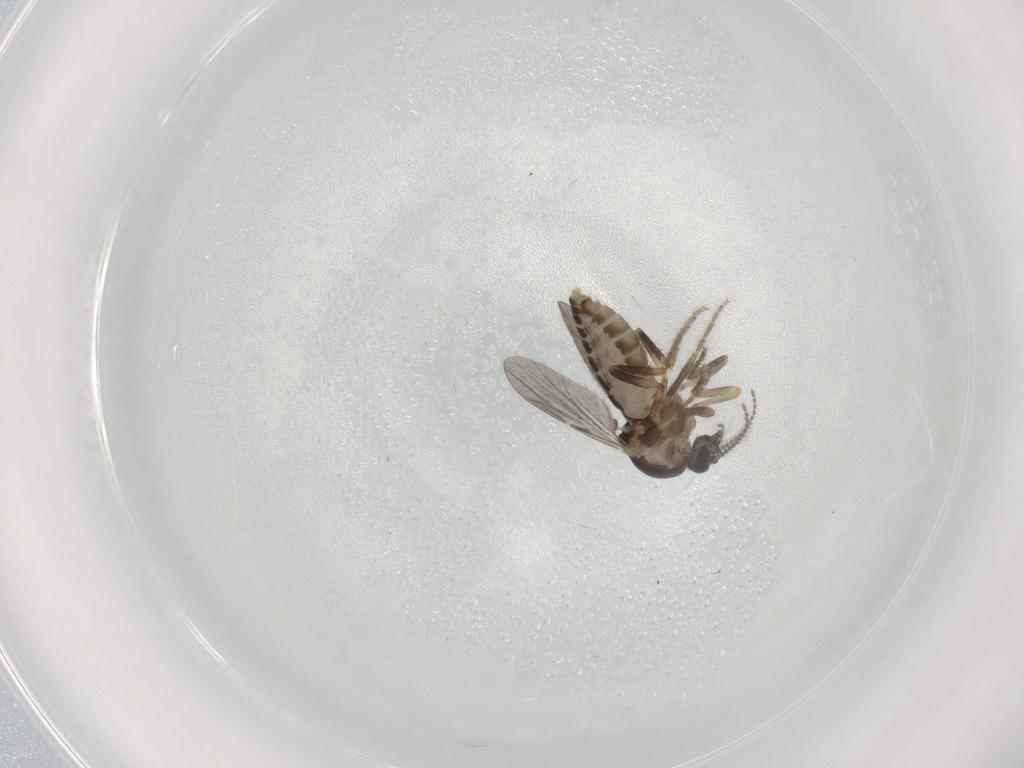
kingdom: Animalia
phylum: Arthropoda
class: Insecta
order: Diptera
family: Ceratopogonidae
